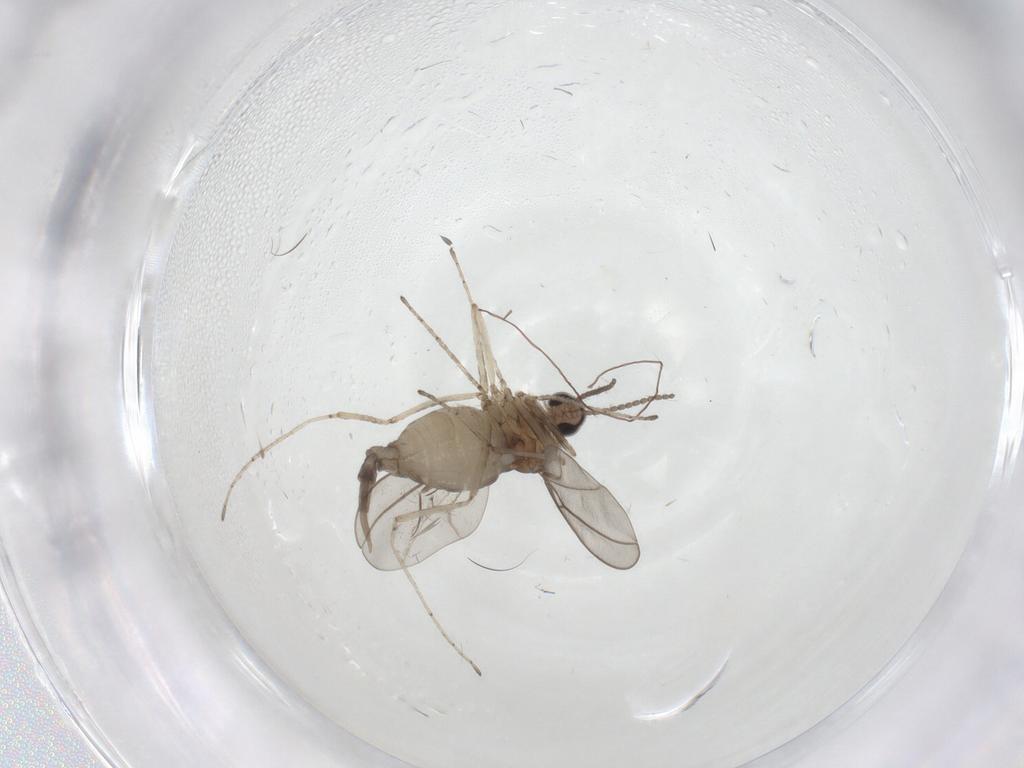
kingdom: Animalia
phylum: Arthropoda
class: Insecta
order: Diptera
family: Cecidomyiidae
